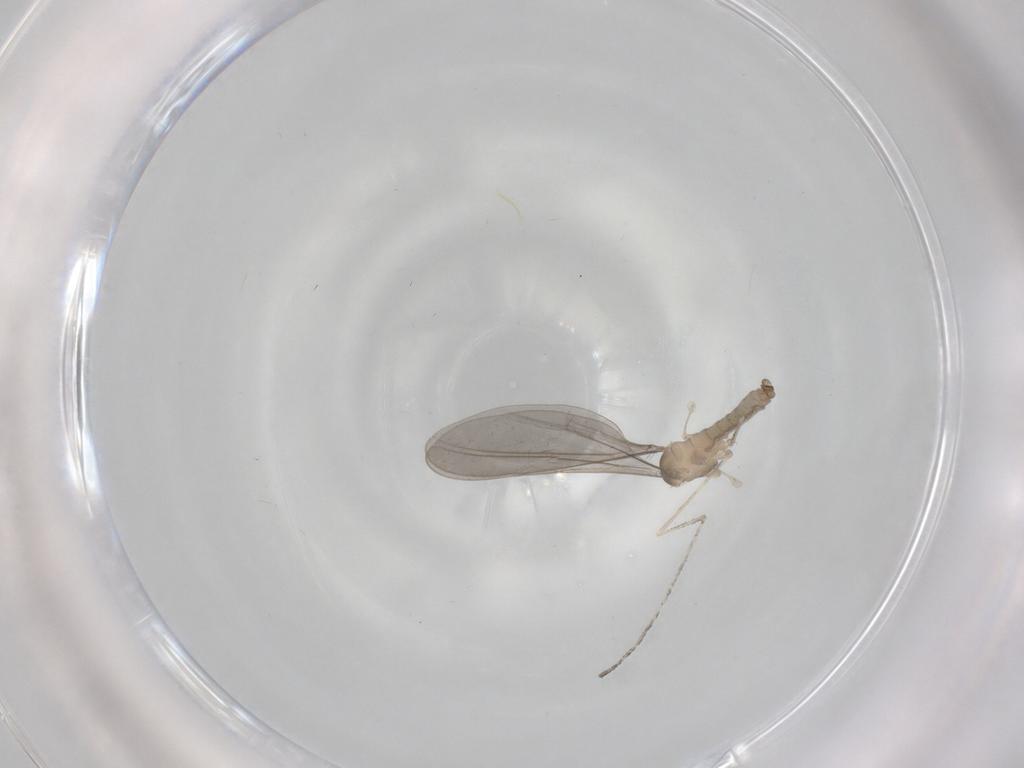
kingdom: Animalia
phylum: Arthropoda
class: Insecta
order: Diptera
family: Cecidomyiidae
